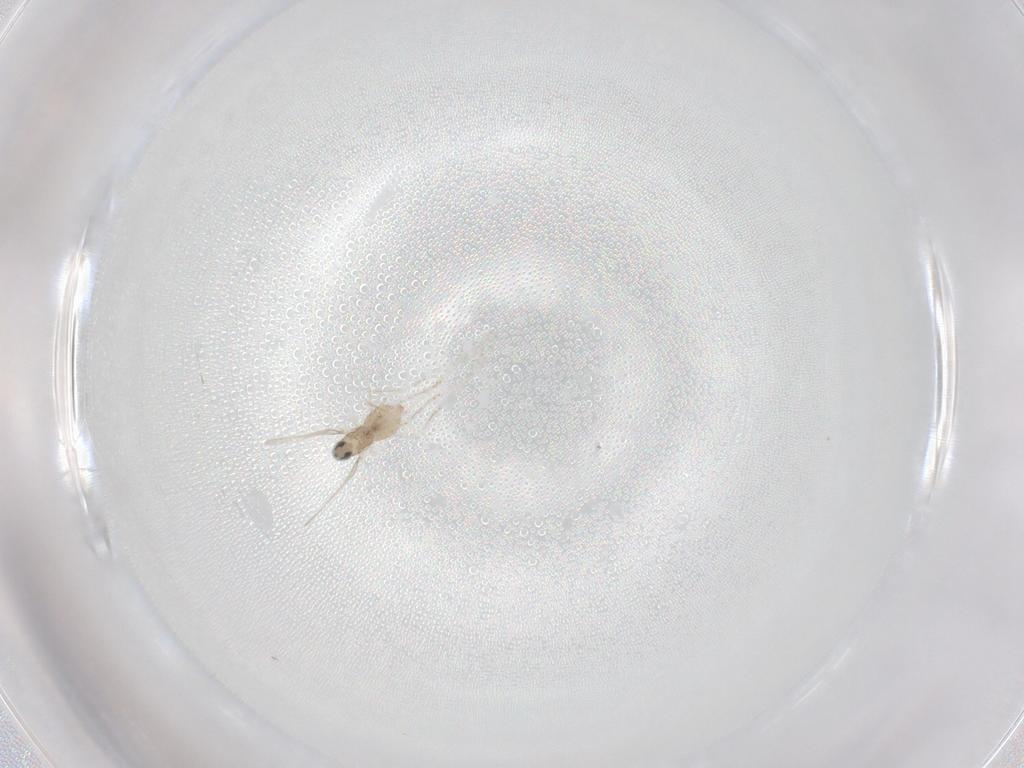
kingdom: Animalia
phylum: Arthropoda
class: Insecta
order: Diptera
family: Cecidomyiidae
